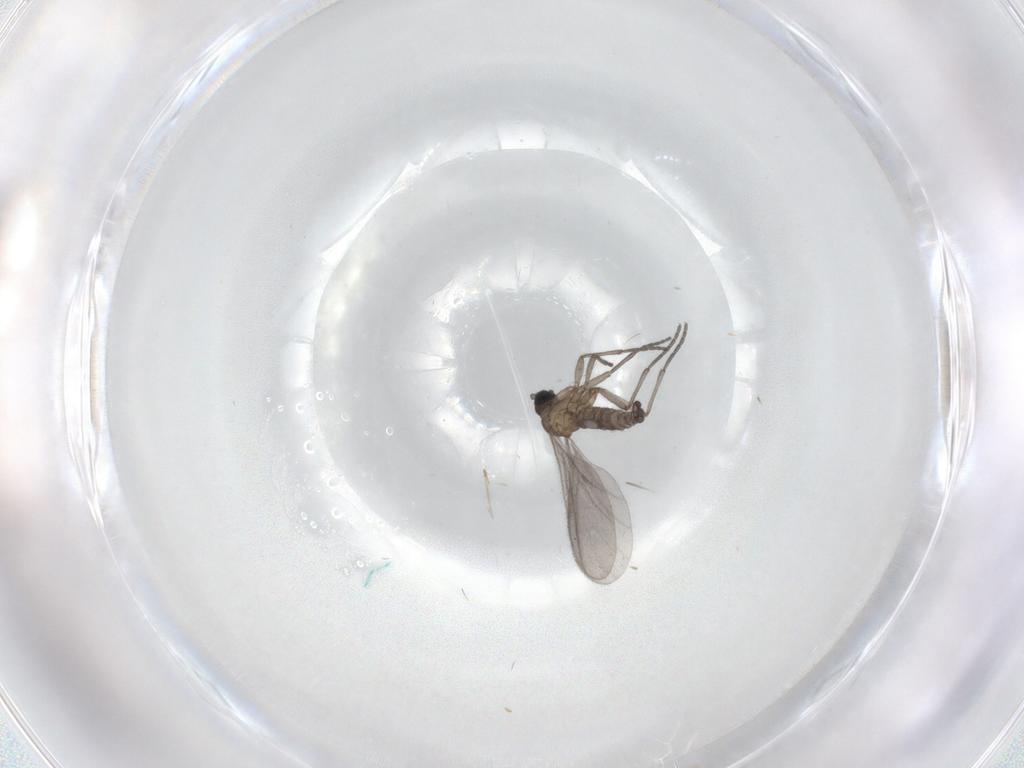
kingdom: Animalia
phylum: Arthropoda
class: Insecta
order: Diptera
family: Sciaridae
